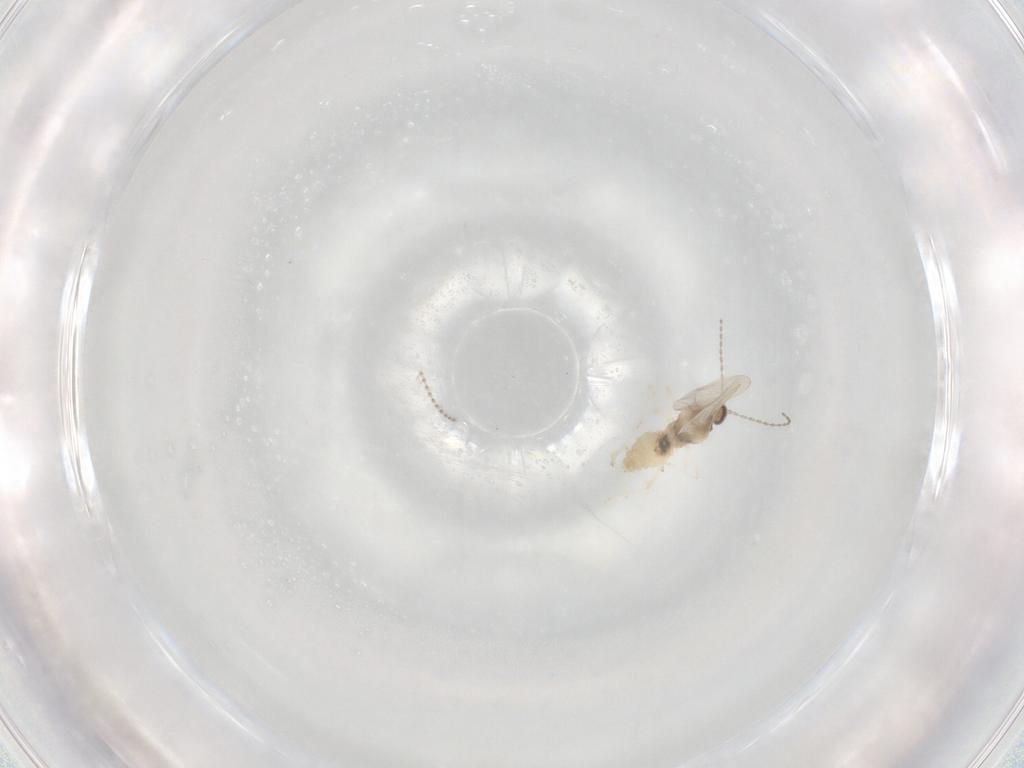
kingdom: Animalia
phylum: Arthropoda
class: Insecta
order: Diptera
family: Psychodidae
